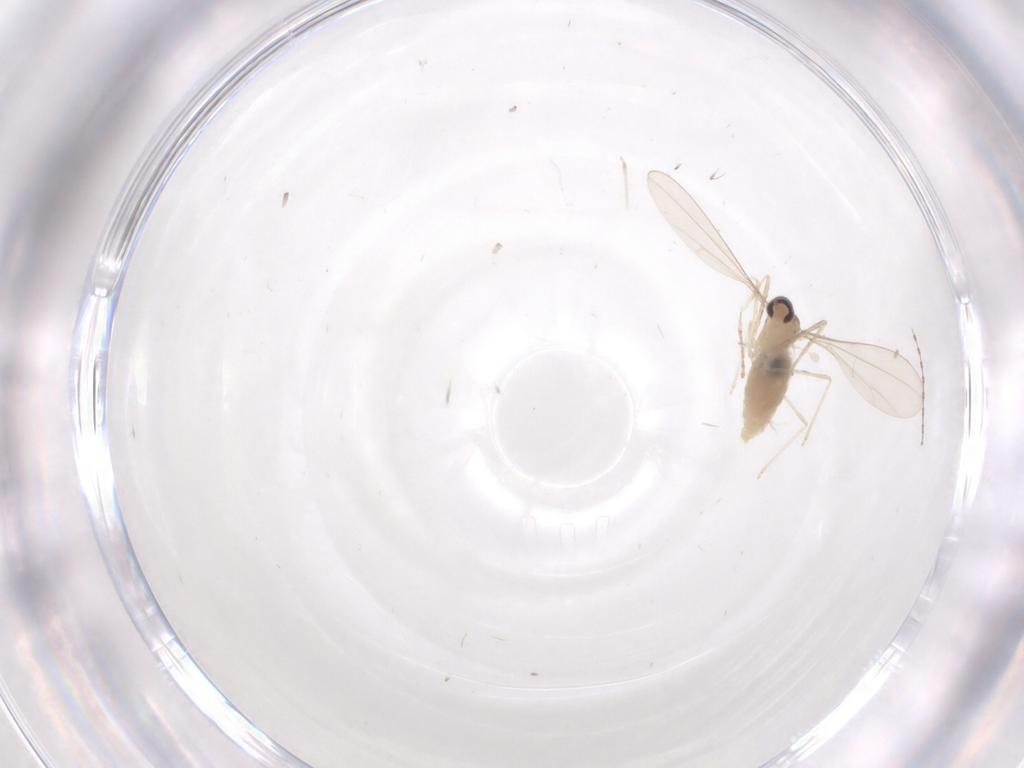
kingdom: Animalia
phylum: Arthropoda
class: Insecta
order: Diptera
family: Cecidomyiidae
